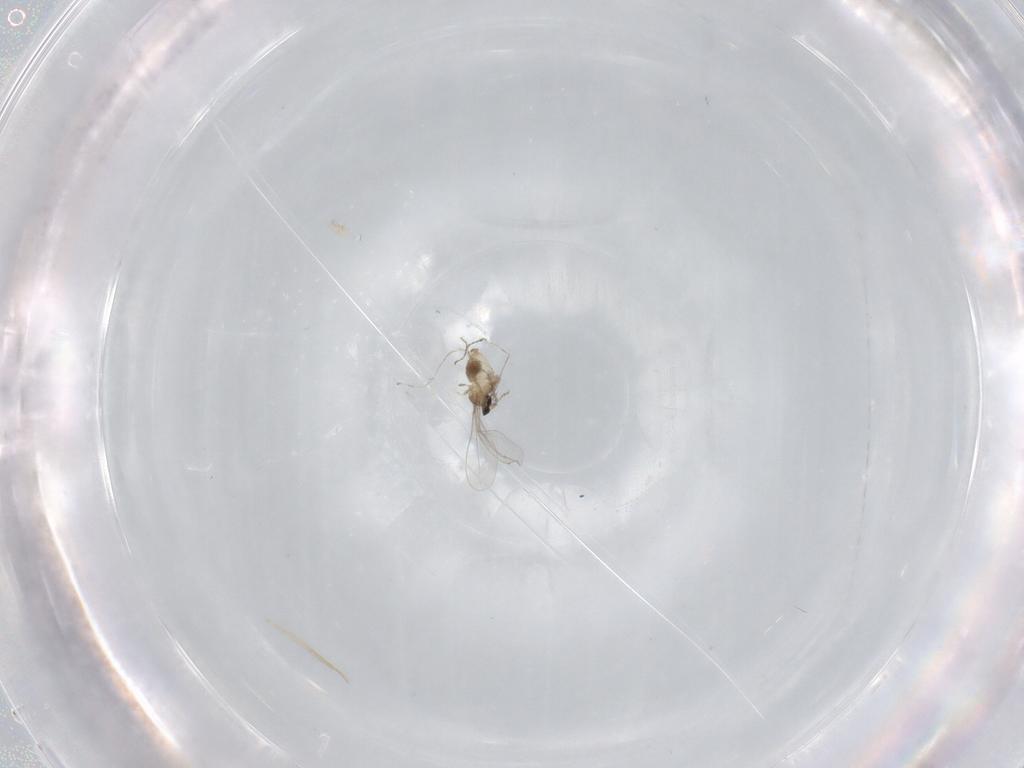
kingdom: Animalia
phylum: Arthropoda
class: Insecta
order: Diptera
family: Cecidomyiidae
